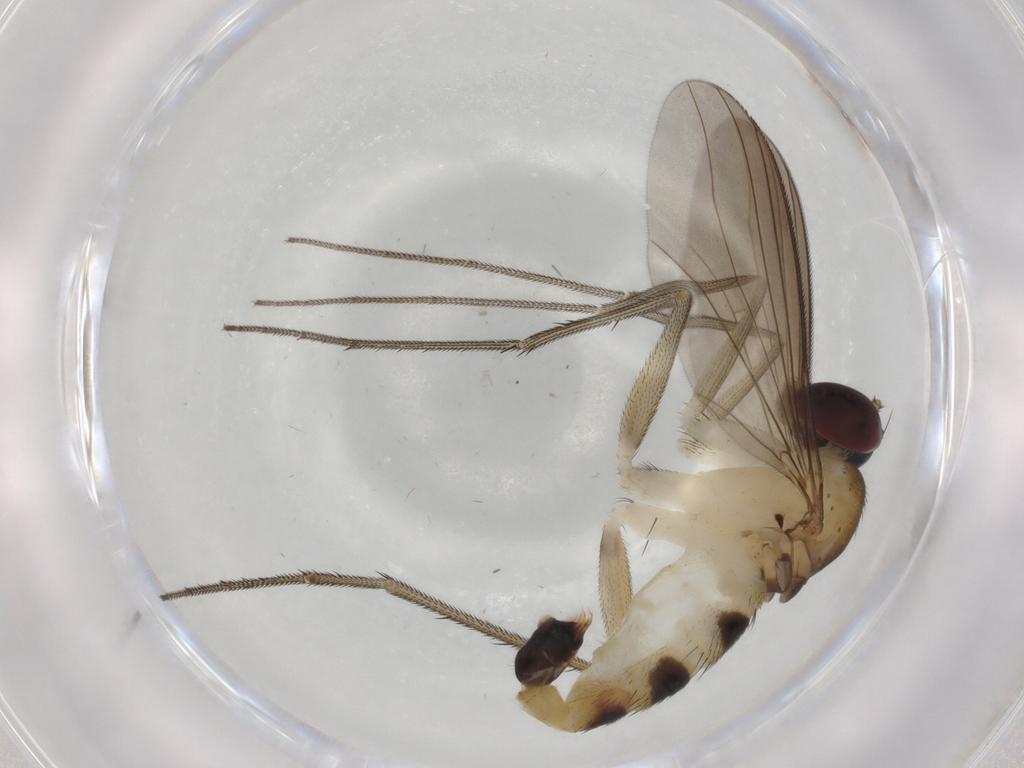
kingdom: Animalia
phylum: Arthropoda
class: Insecta
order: Diptera
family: Dolichopodidae
